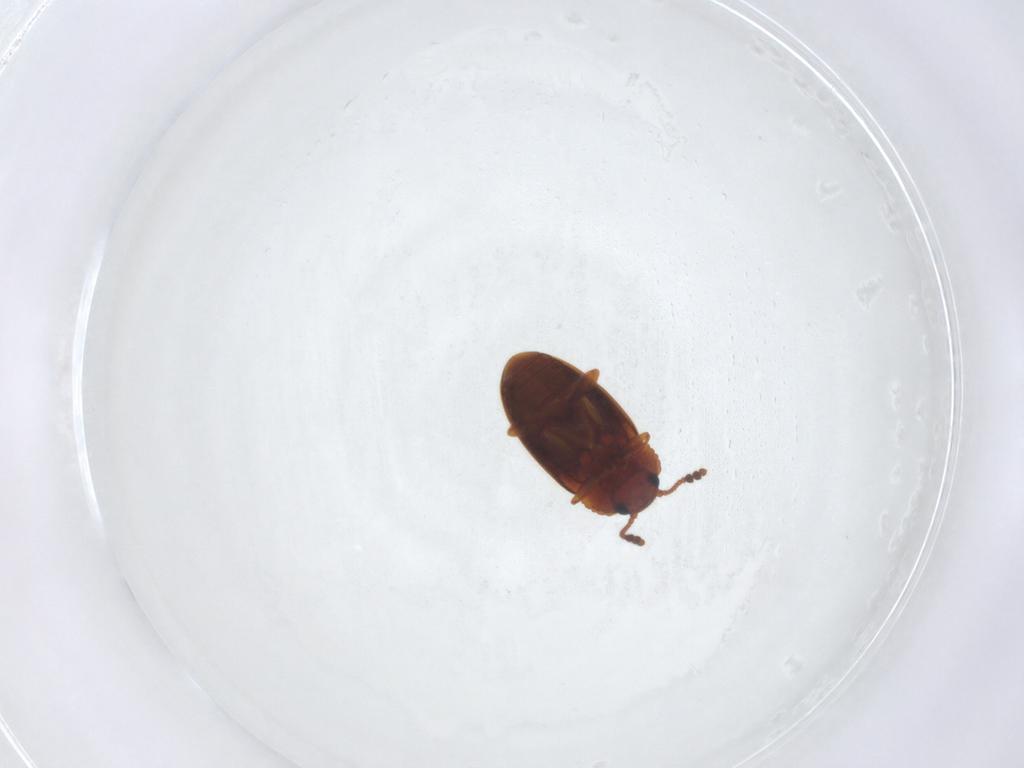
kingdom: Animalia
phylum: Arthropoda
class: Insecta
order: Coleoptera
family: Erotylidae
